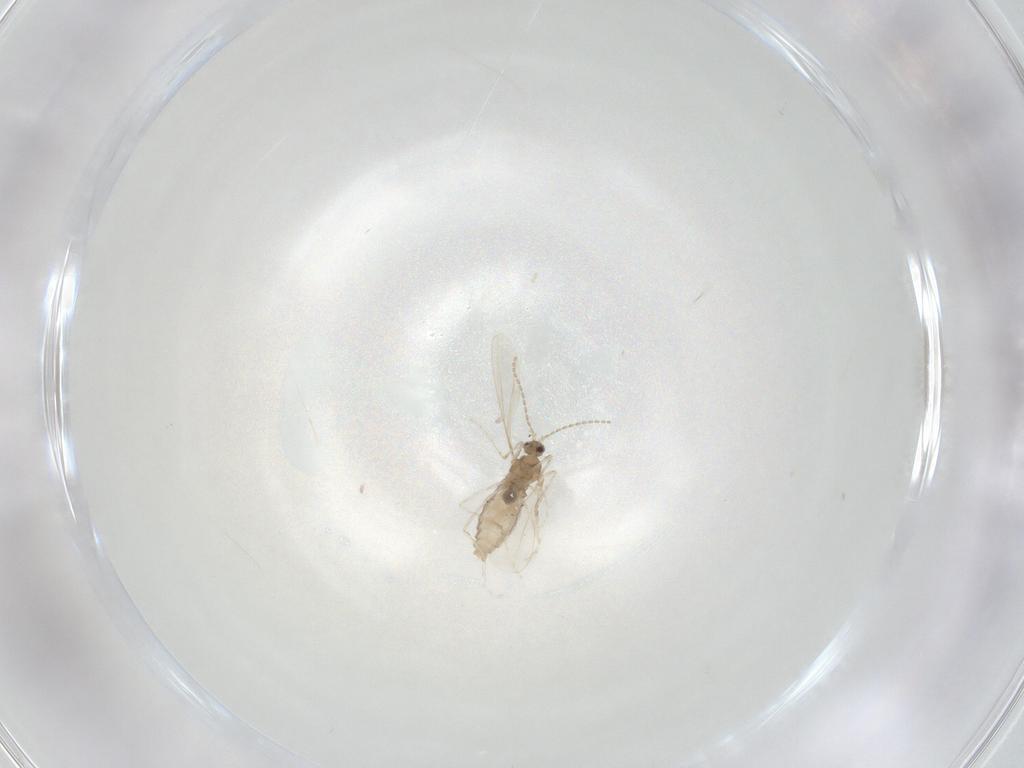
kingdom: Animalia
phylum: Arthropoda
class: Insecta
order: Diptera
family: Cecidomyiidae
